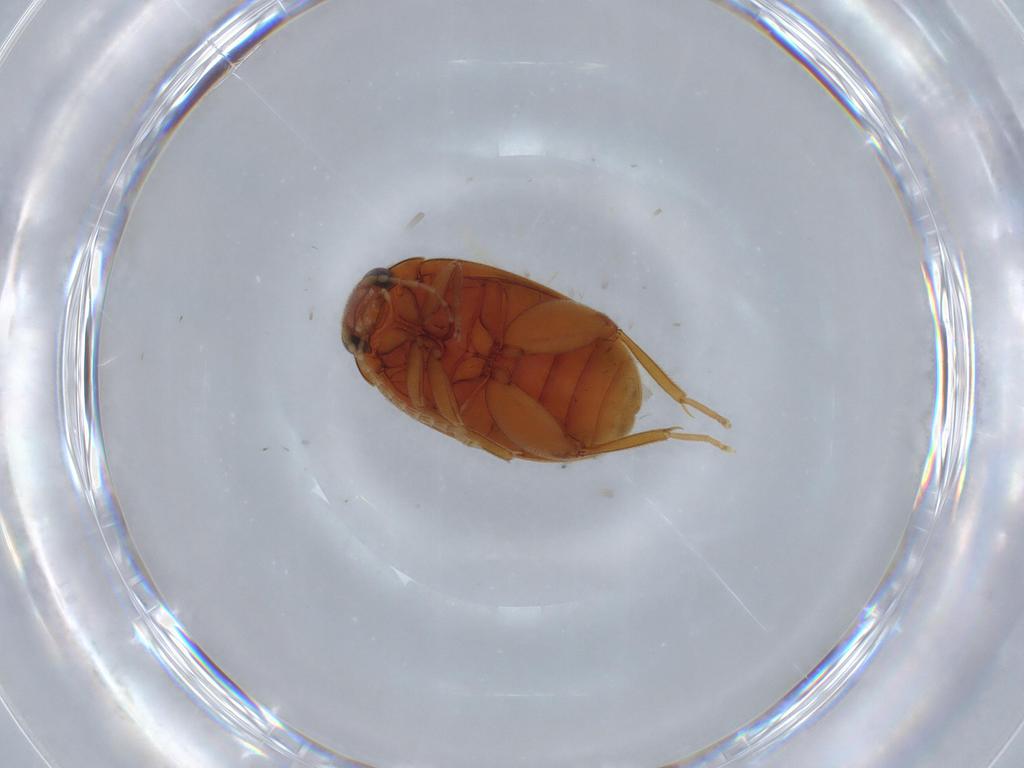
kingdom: Animalia
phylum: Arthropoda
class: Insecta
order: Coleoptera
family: Scirtidae
